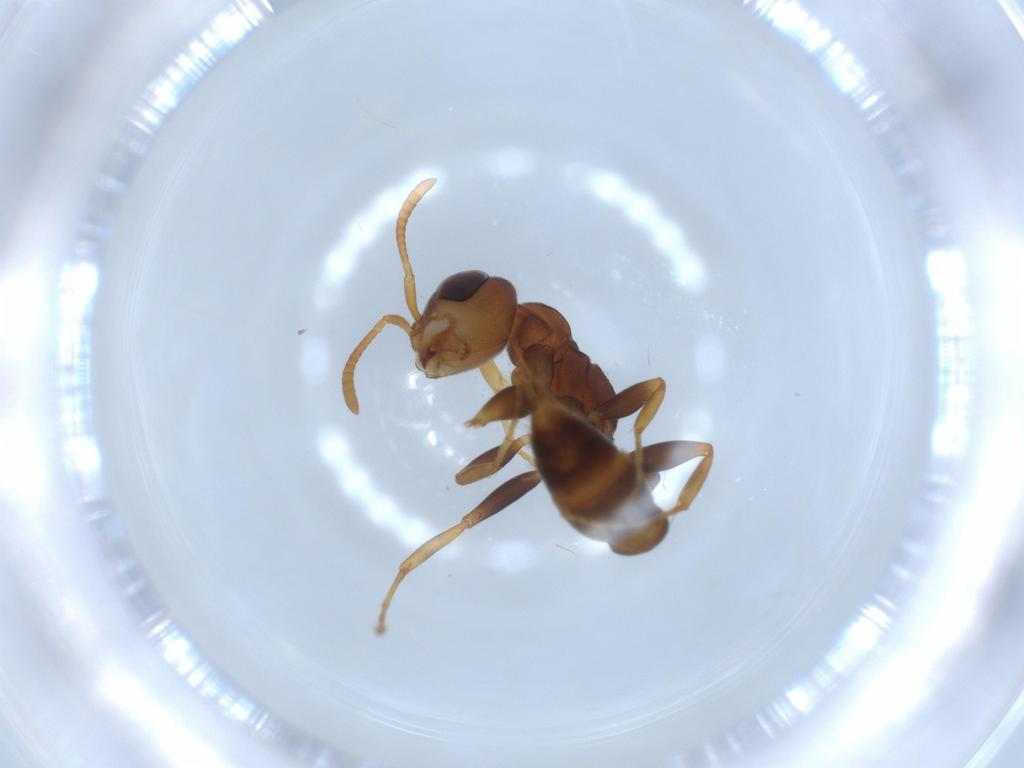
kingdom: Animalia
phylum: Arthropoda
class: Insecta
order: Hymenoptera
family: Formicidae
